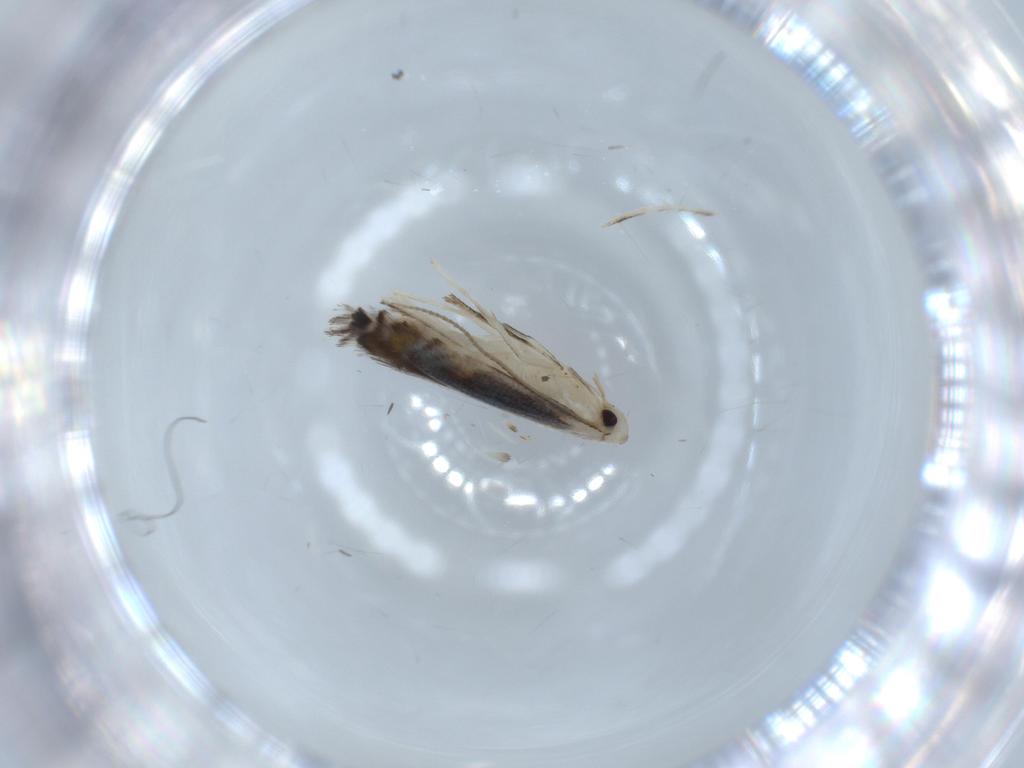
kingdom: Animalia
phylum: Arthropoda
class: Insecta
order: Lepidoptera
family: Gracillariidae
